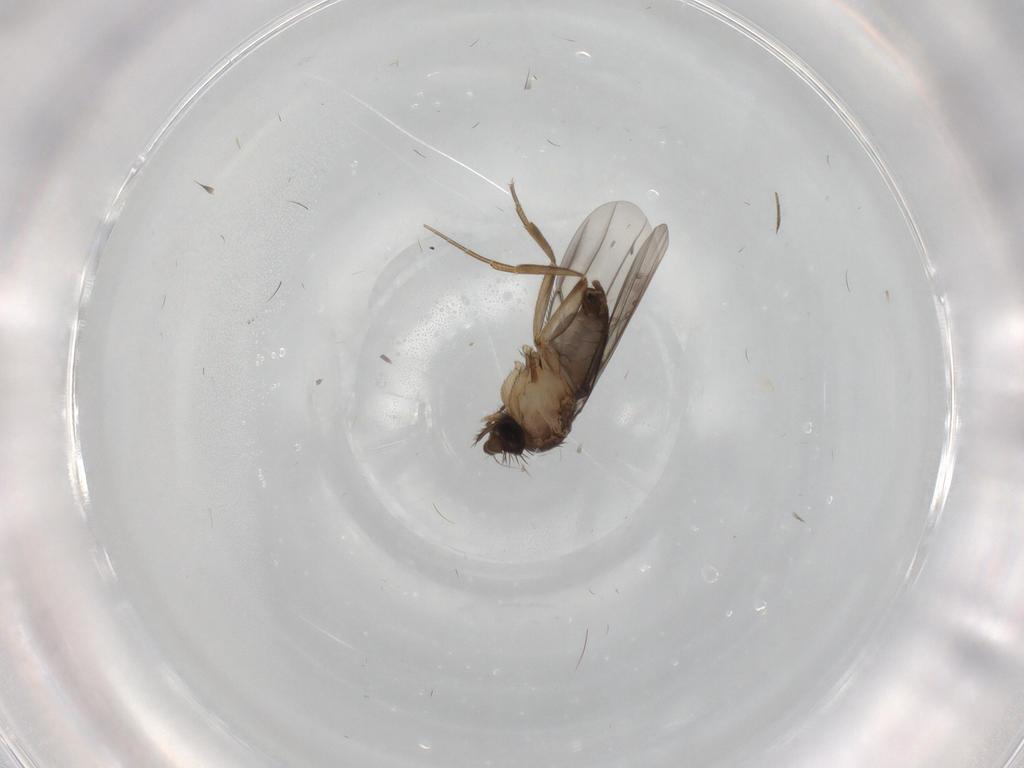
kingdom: Animalia
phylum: Arthropoda
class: Insecta
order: Diptera
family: Phoridae
